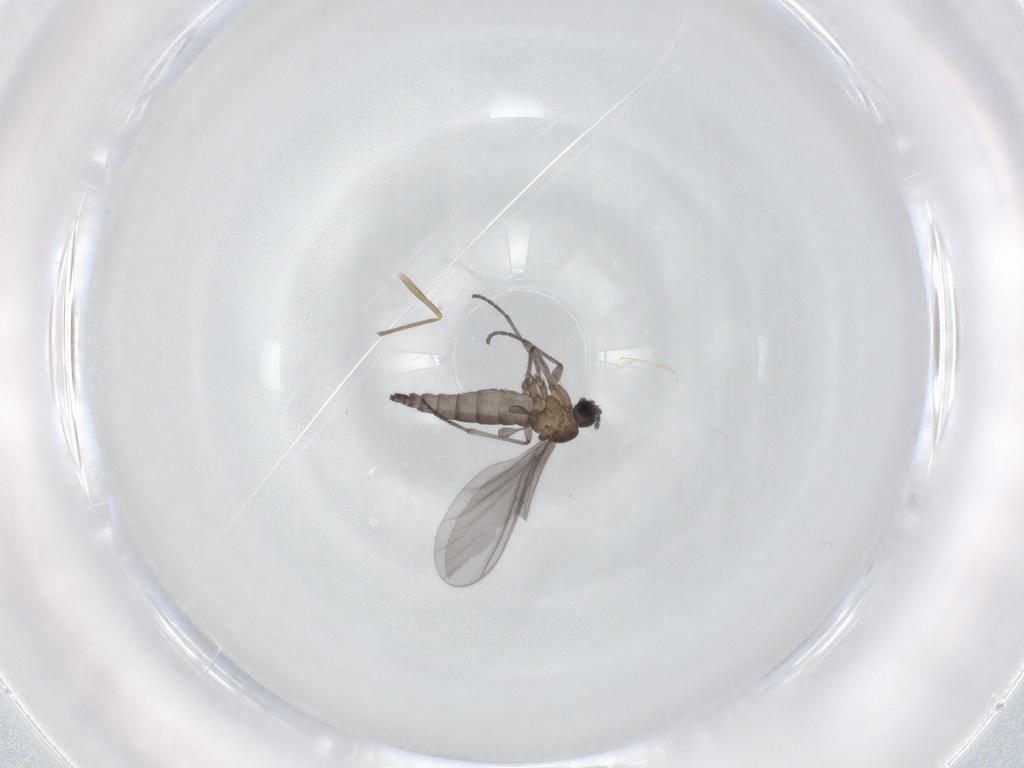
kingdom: Animalia
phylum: Arthropoda
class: Insecta
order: Diptera
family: Sciaridae
